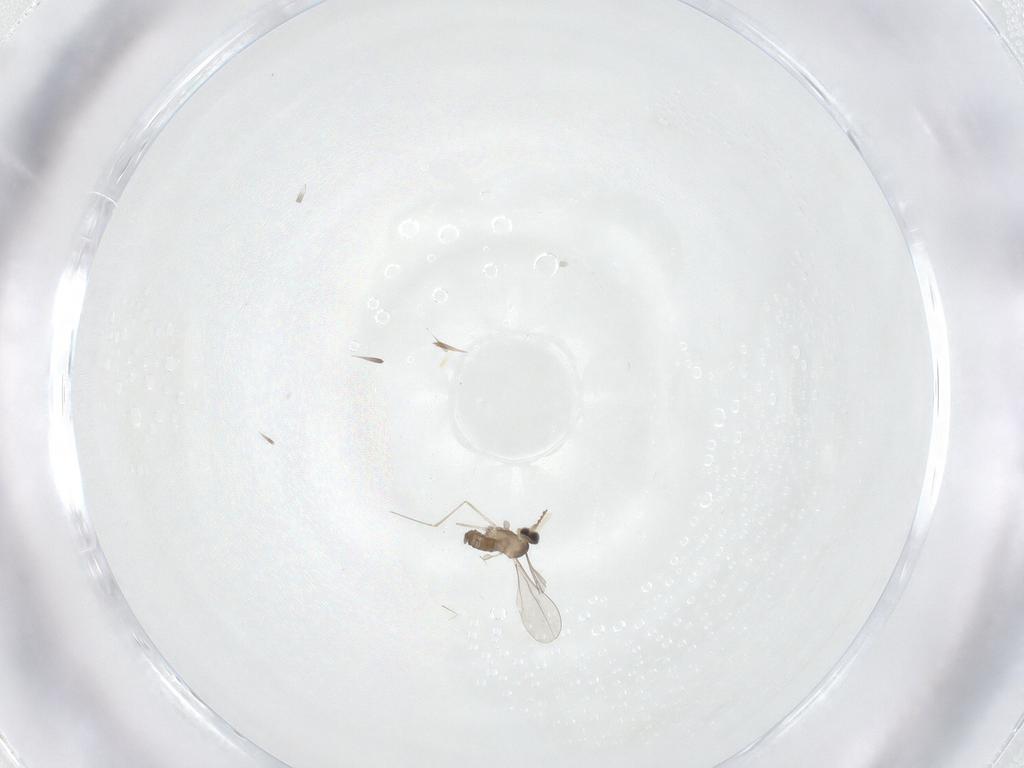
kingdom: Animalia
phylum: Arthropoda
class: Insecta
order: Diptera
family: Cecidomyiidae
